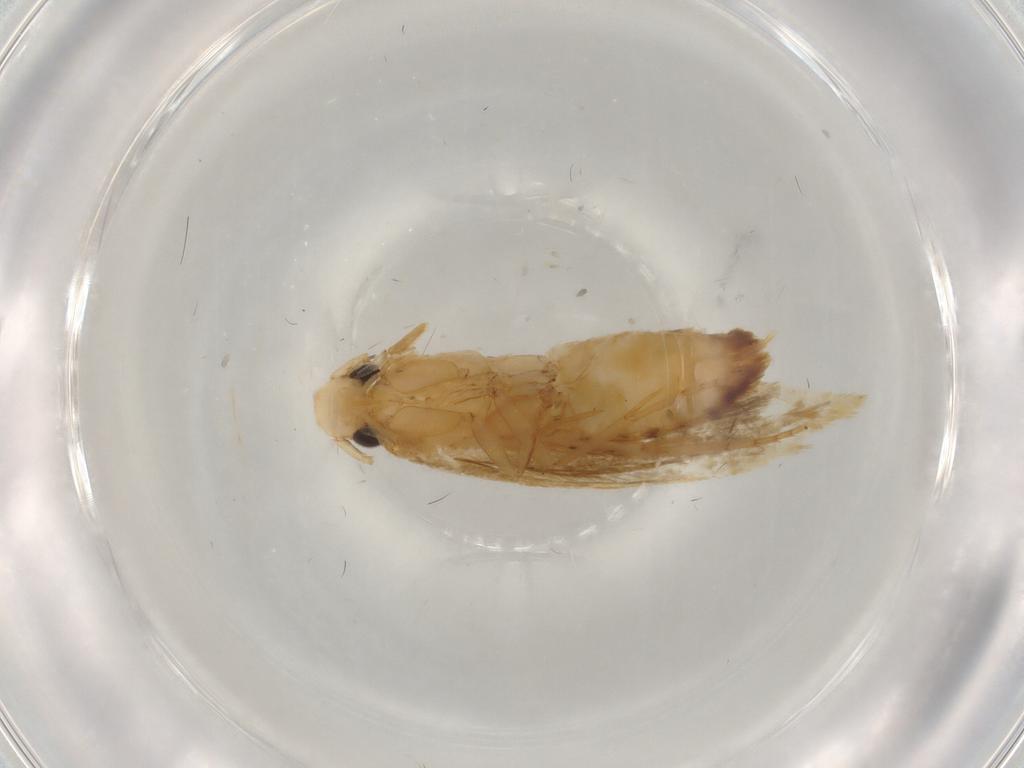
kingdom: Animalia
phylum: Arthropoda
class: Insecta
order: Lepidoptera
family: Tineidae
